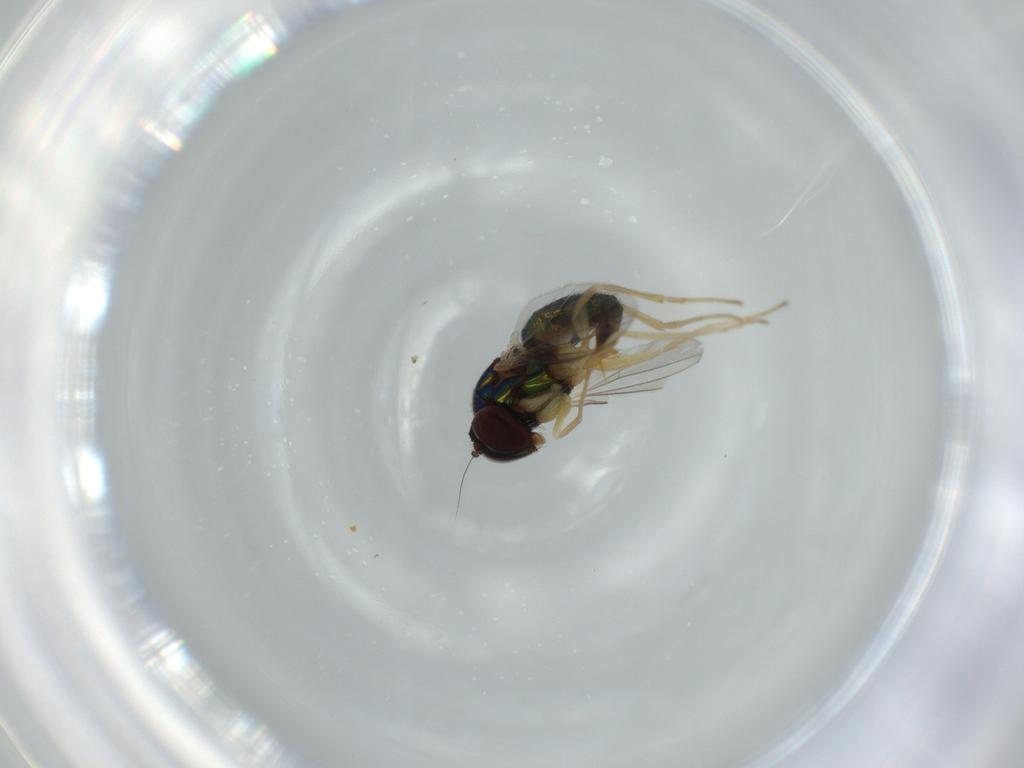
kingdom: Animalia
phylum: Arthropoda
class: Insecta
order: Diptera
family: Dolichopodidae
